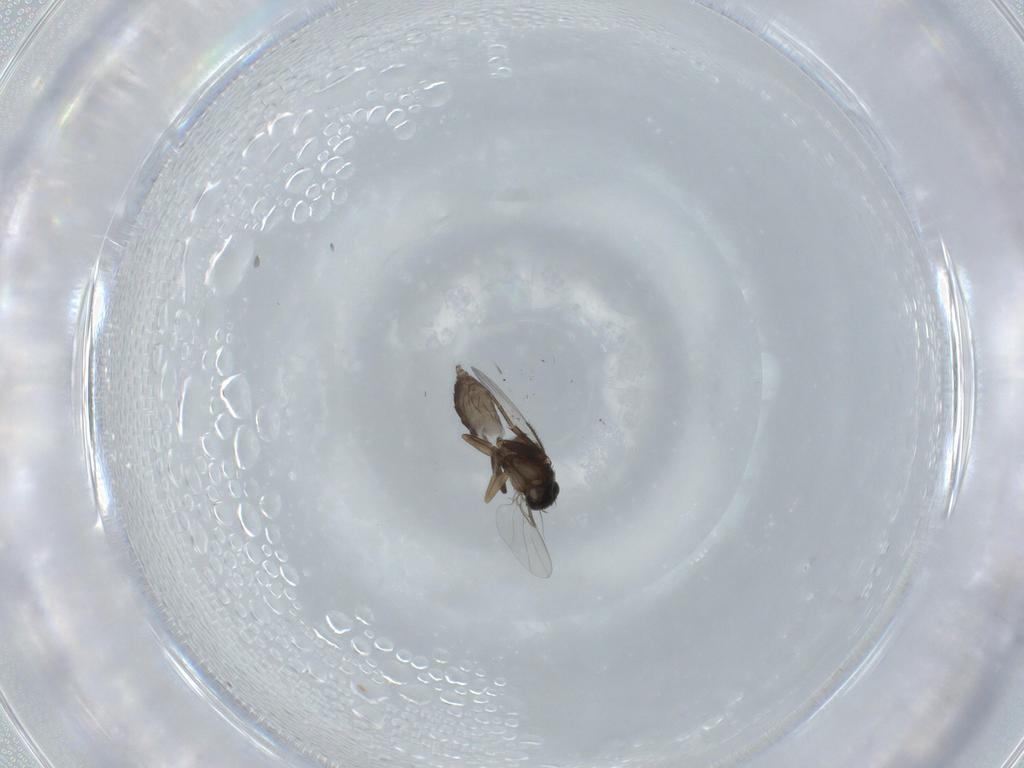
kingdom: Animalia
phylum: Arthropoda
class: Insecta
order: Diptera
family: Phoridae
